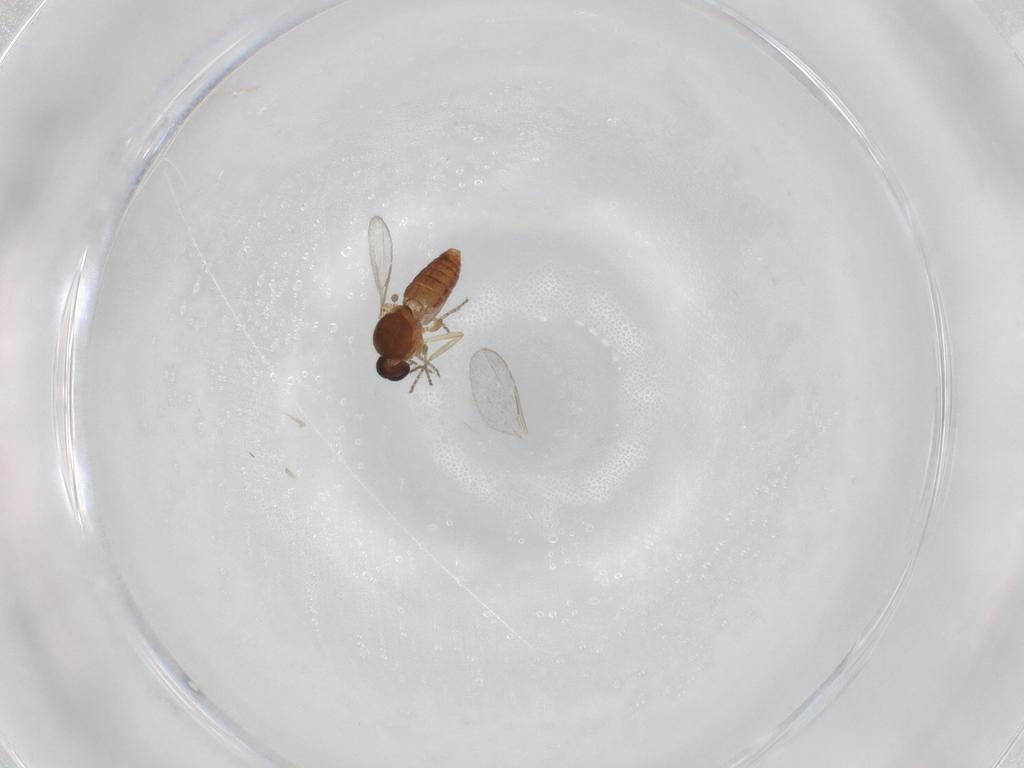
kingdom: Animalia
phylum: Arthropoda
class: Insecta
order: Diptera
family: Ceratopogonidae
